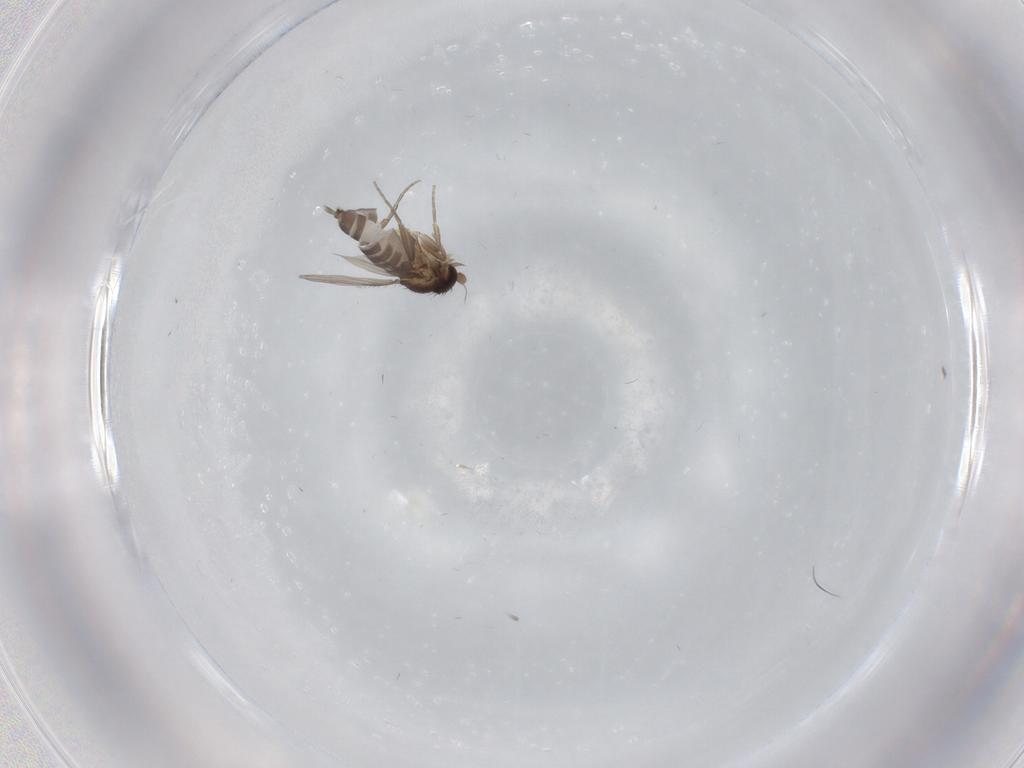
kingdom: Animalia
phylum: Arthropoda
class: Insecta
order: Diptera
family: Phoridae
